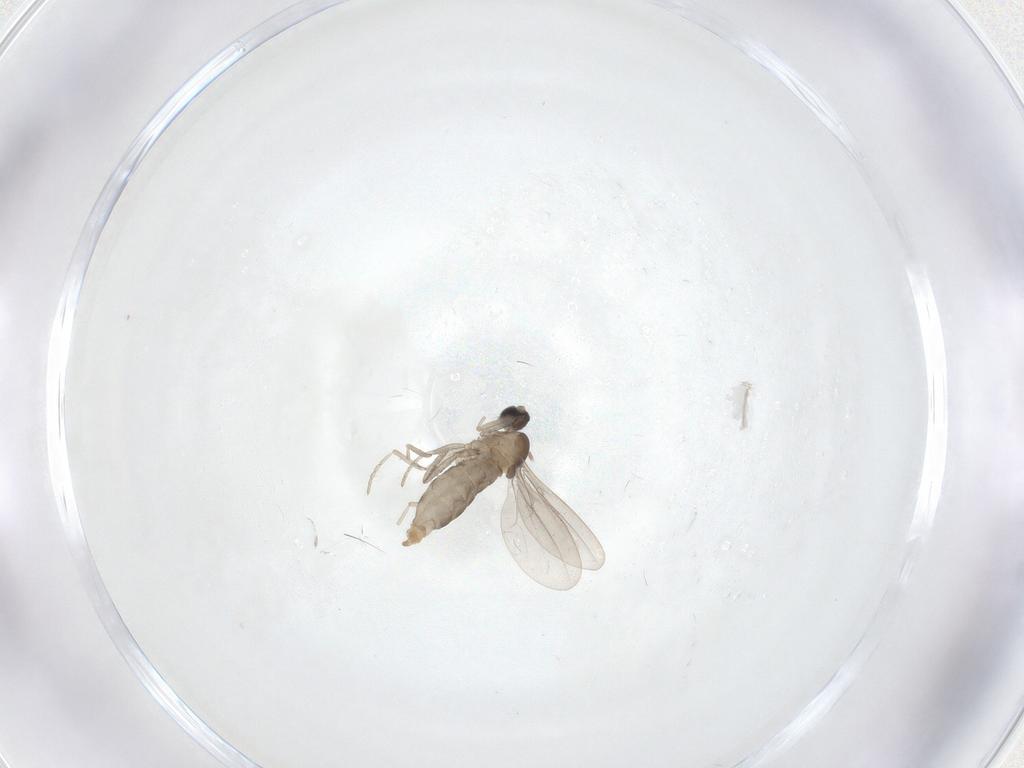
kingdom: Animalia
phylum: Arthropoda
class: Insecta
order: Diptera
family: Cecidomyiidae
